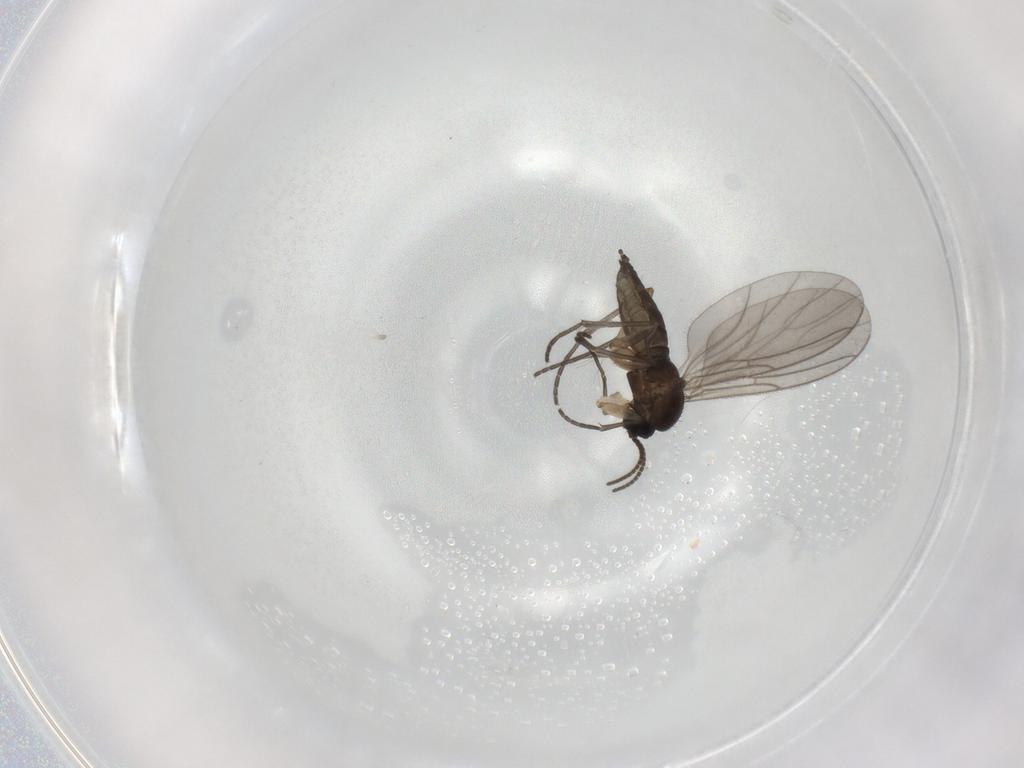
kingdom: Animalia
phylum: Arthropoda
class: Insecta
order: Diptera
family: Sciaridae
